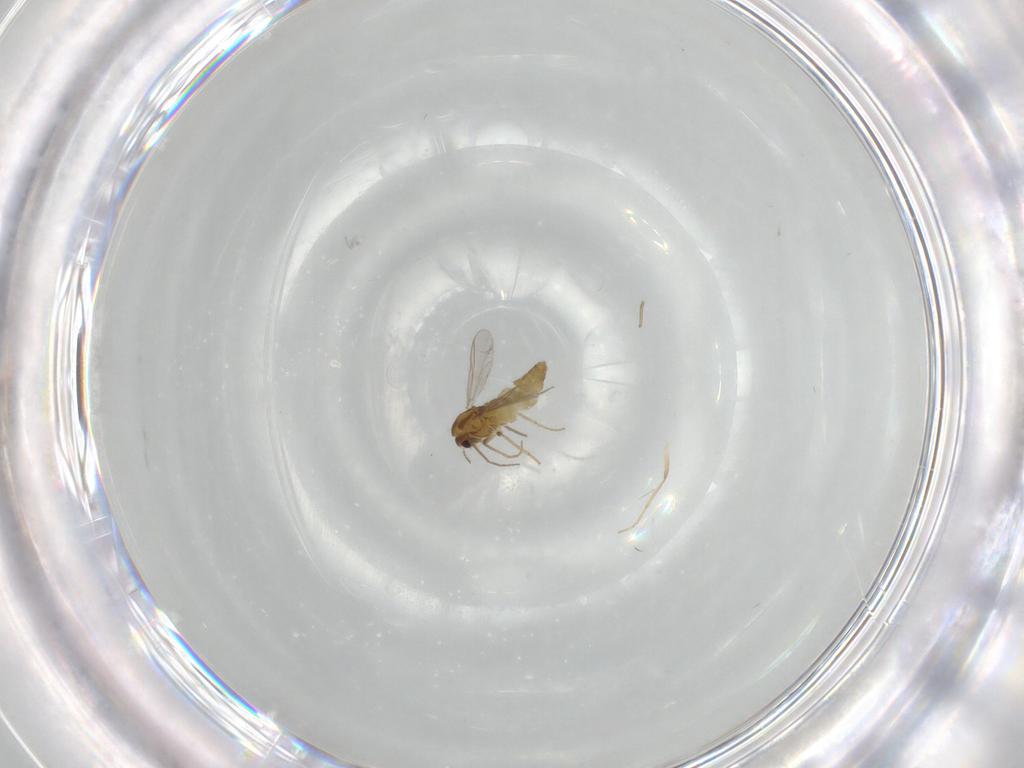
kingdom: Animalia
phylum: Arthropoda
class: Insecta
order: Diptera
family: Chironomidae
